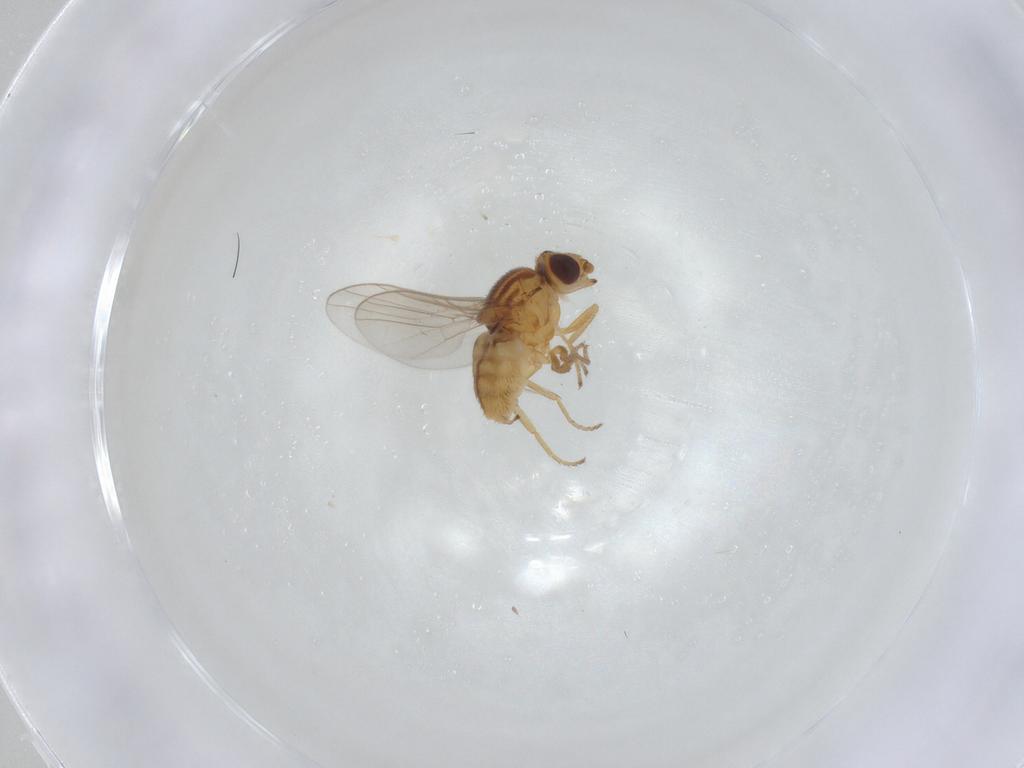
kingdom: Animalia
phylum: Arthropoda
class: Insecta
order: Diptera
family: Chloropidae
